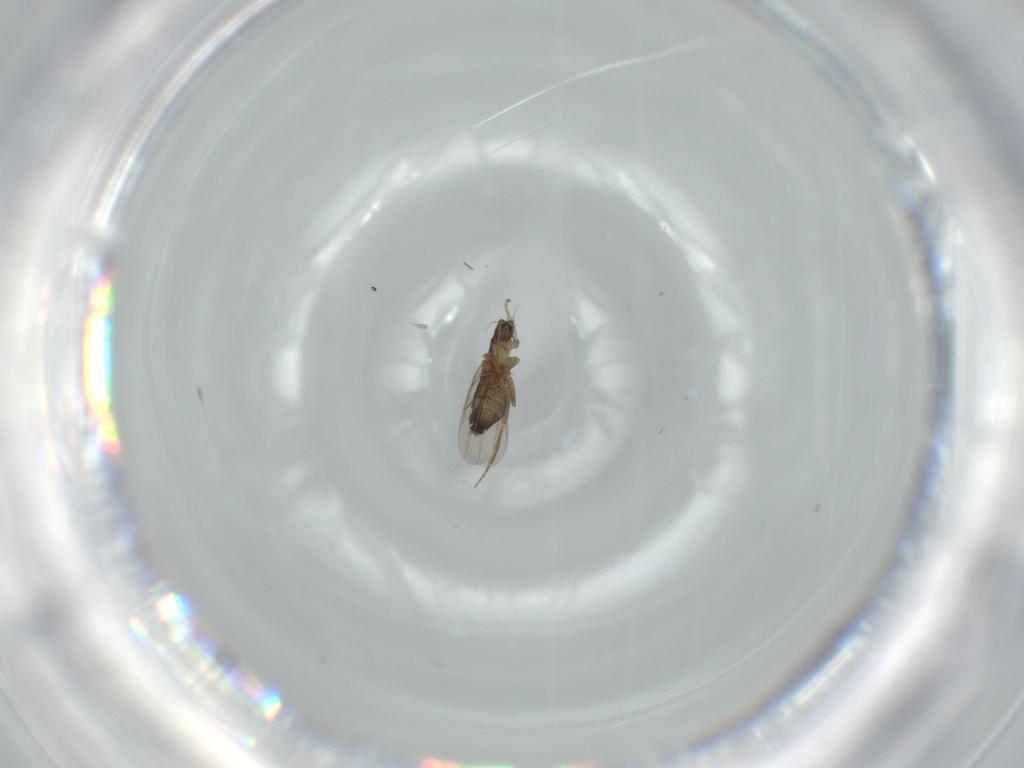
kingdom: Animalia
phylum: Arthropoda
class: Insecta
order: Diptera
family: Phoridae
